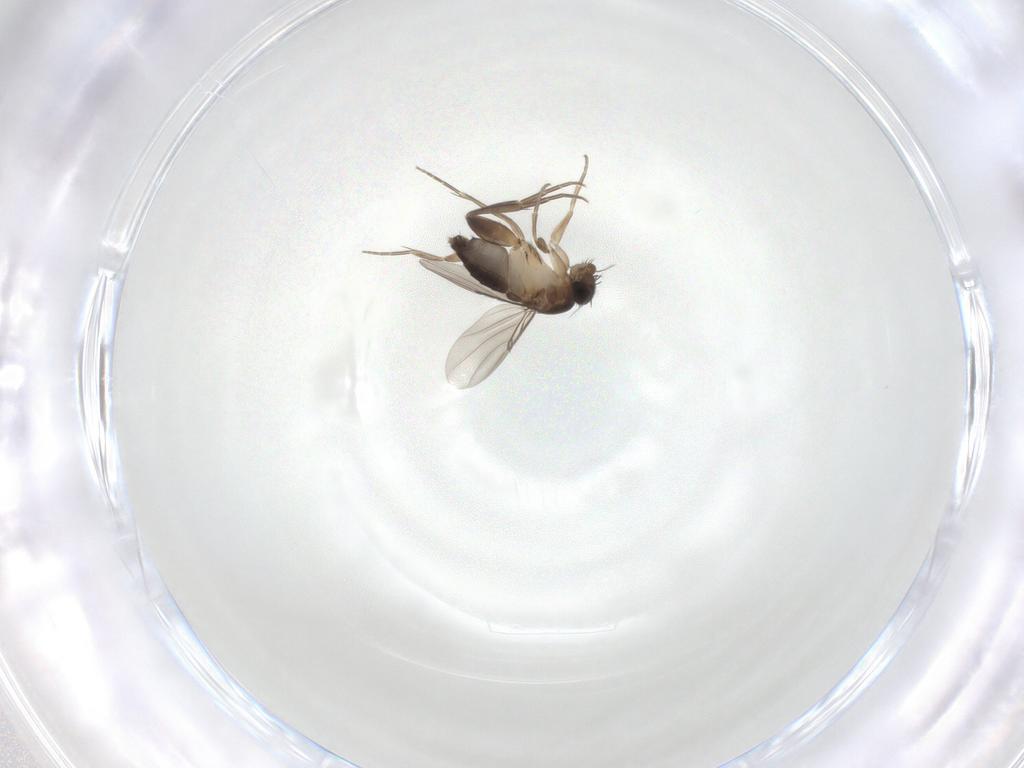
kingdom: Animalia
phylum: Arthropoda
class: Insecta
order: Diptera
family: Phoridae
